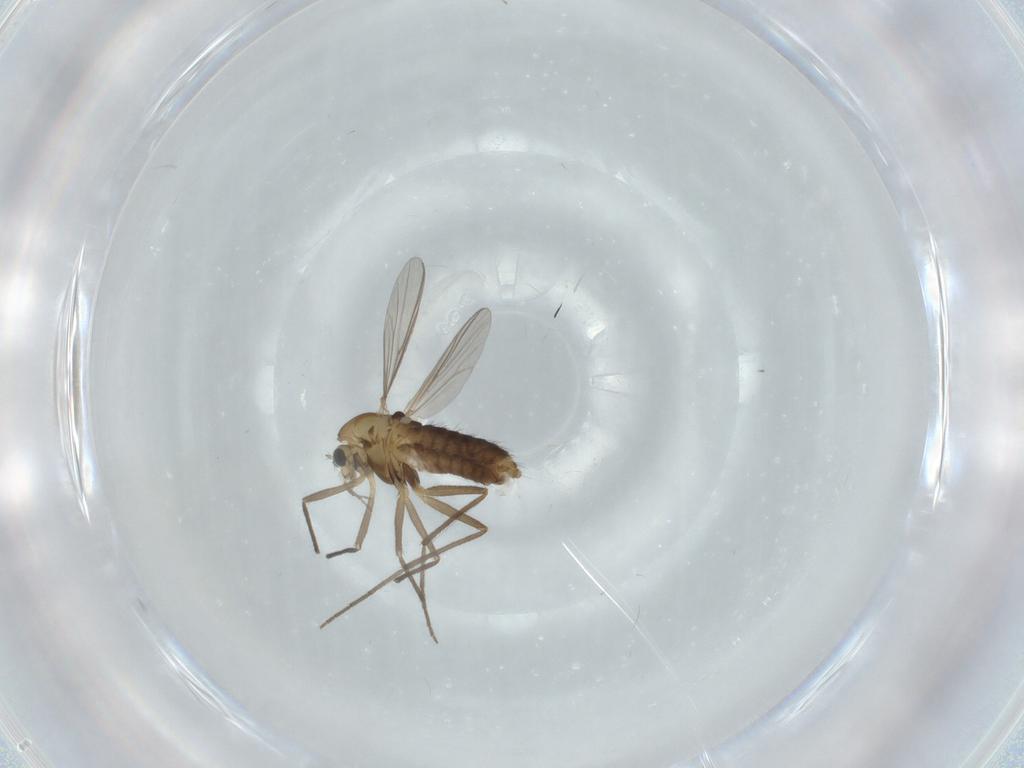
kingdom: Animalia
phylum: Arthropoda
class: Insecta
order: Diptera
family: Chironomidae
